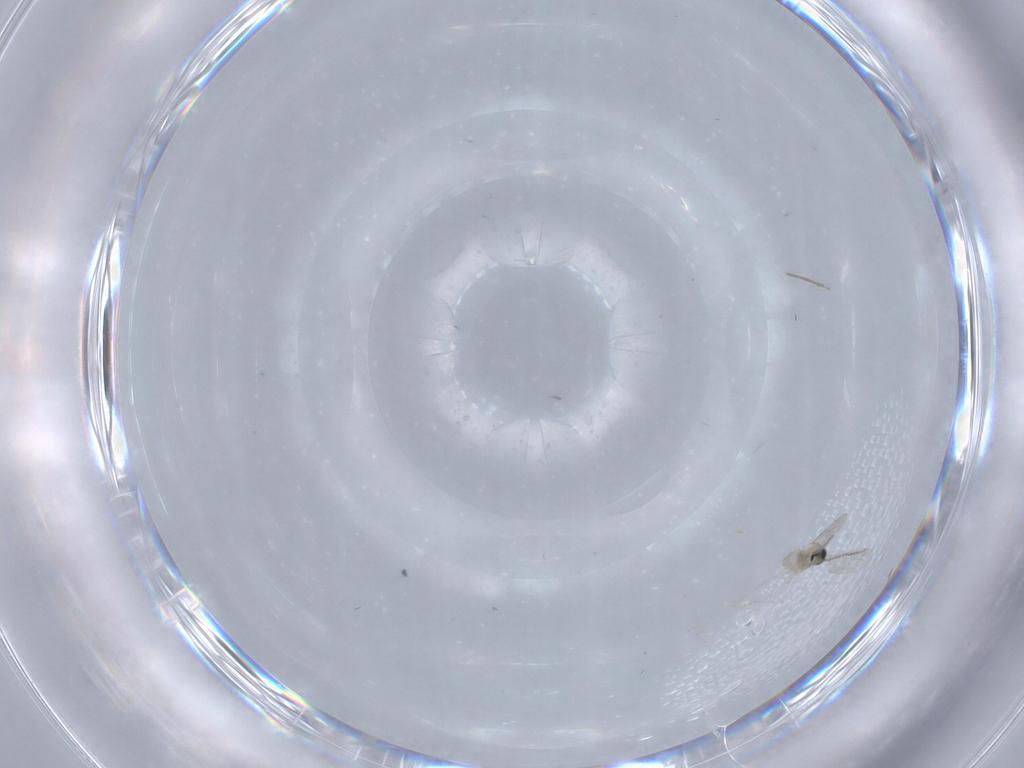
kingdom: Animalia
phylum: Arthropoda
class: Insecta
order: Diptera
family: Cecidomyiidae
